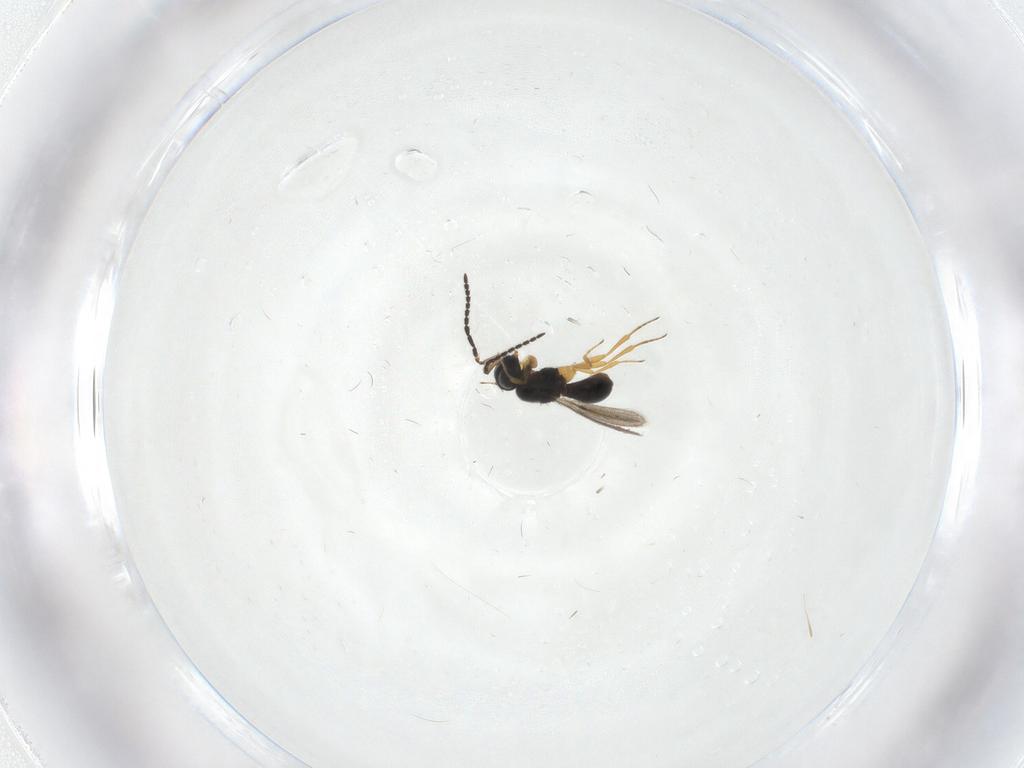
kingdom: Animalia
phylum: Arthropoda
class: Insecta
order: Hymenoptera
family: Scelionidae
